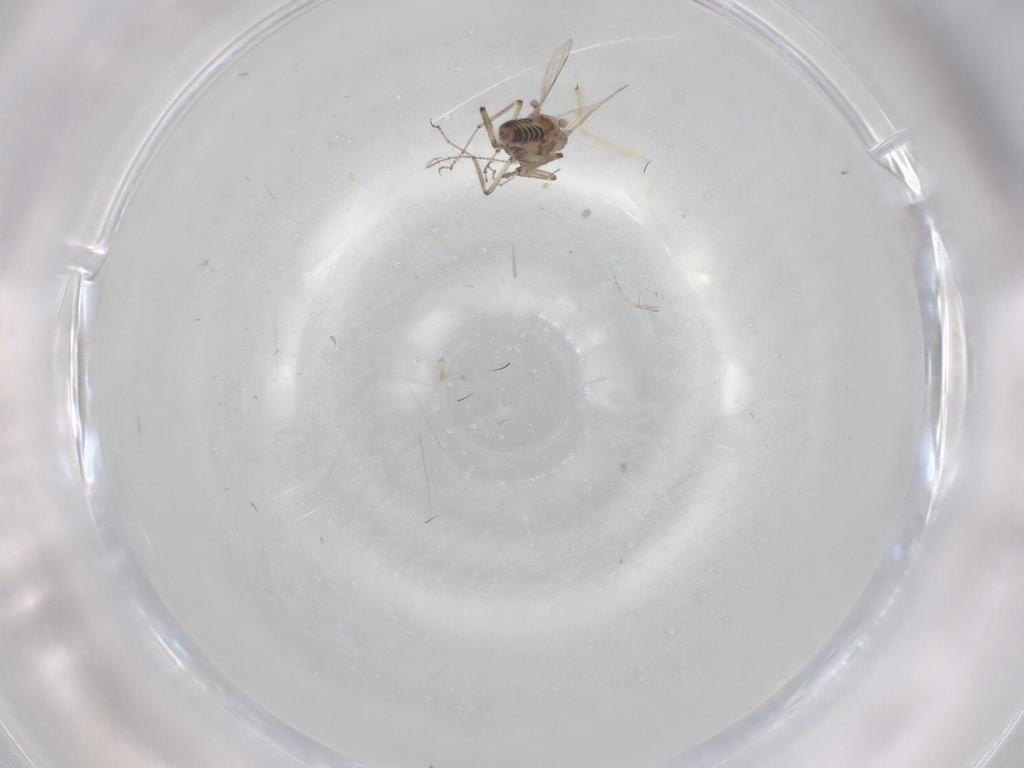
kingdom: Animalia
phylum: Arthropoda
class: Insecta
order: Diptera
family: Ceratopogonidae
